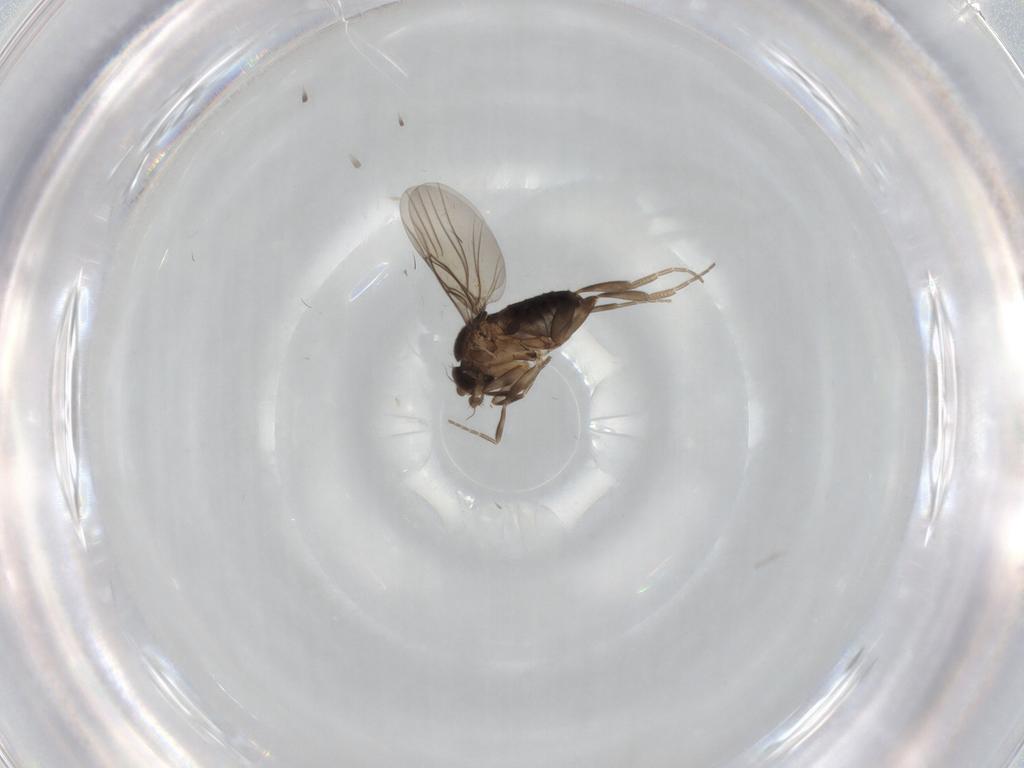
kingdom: Animalia
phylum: Arthropoda
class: Insecta
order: Diptera
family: Phoridae
